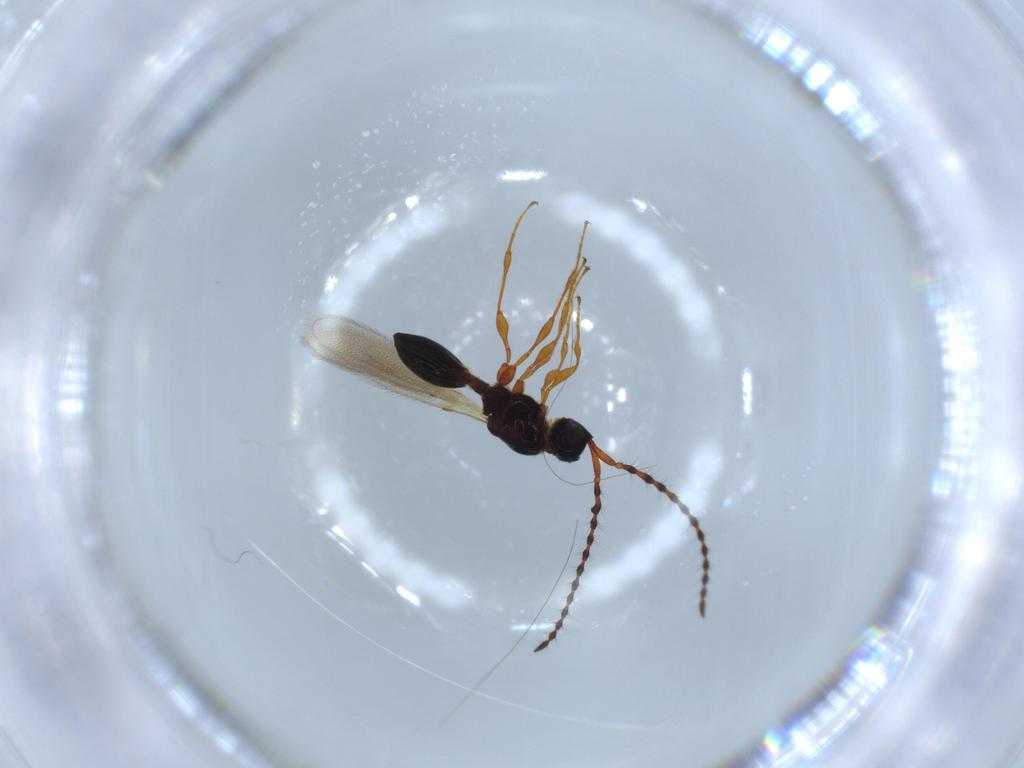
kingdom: Animalia
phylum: Arthropoda
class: Insecta
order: Hymenoptera
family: Diapriidae
